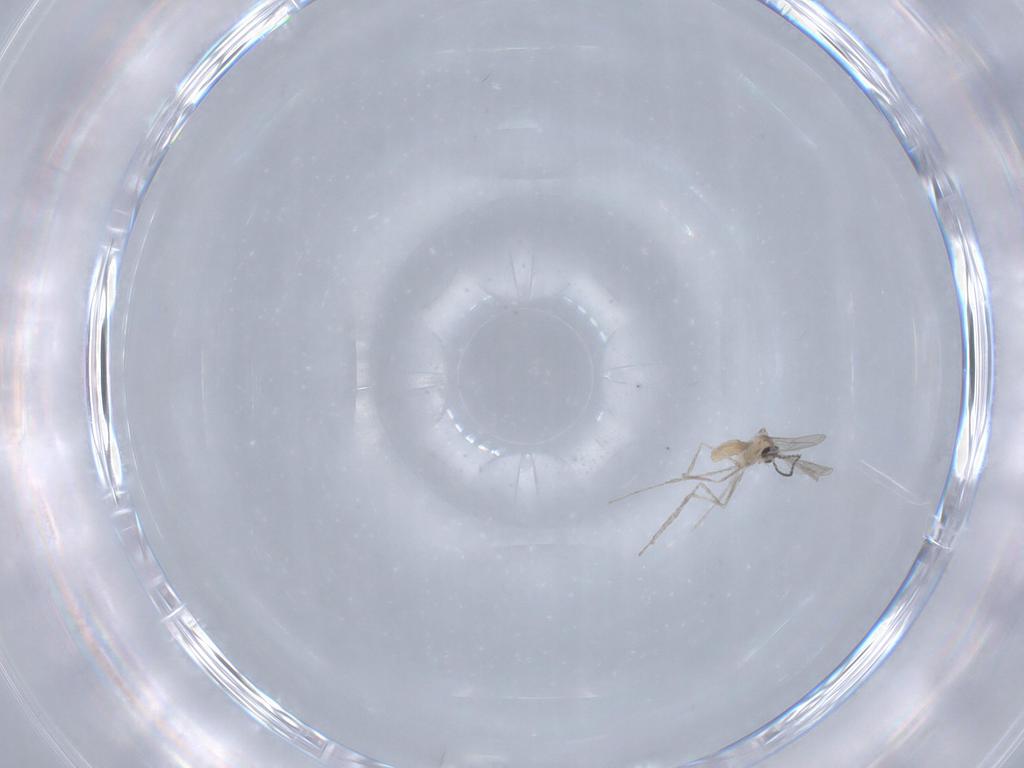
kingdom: Animalia
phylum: Arthropoda
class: Insecta
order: Diptera
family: Cecidomyiidae
